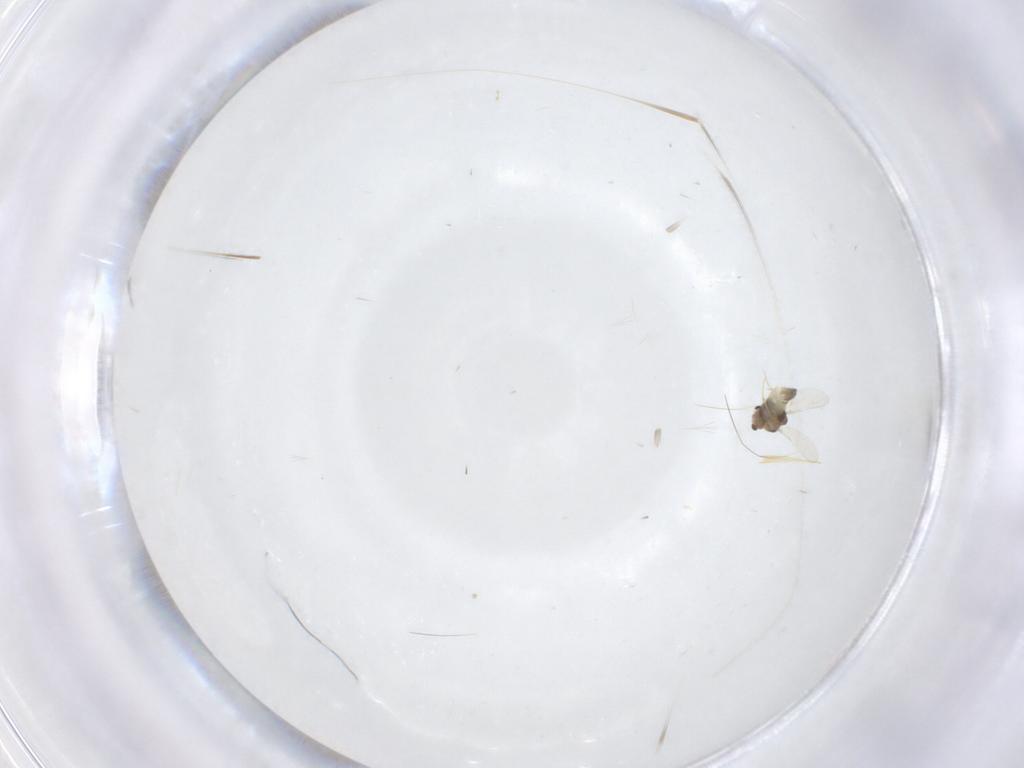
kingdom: Animalia
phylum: Arthropoda
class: Insecta
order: Diptera
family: Chironomidae
